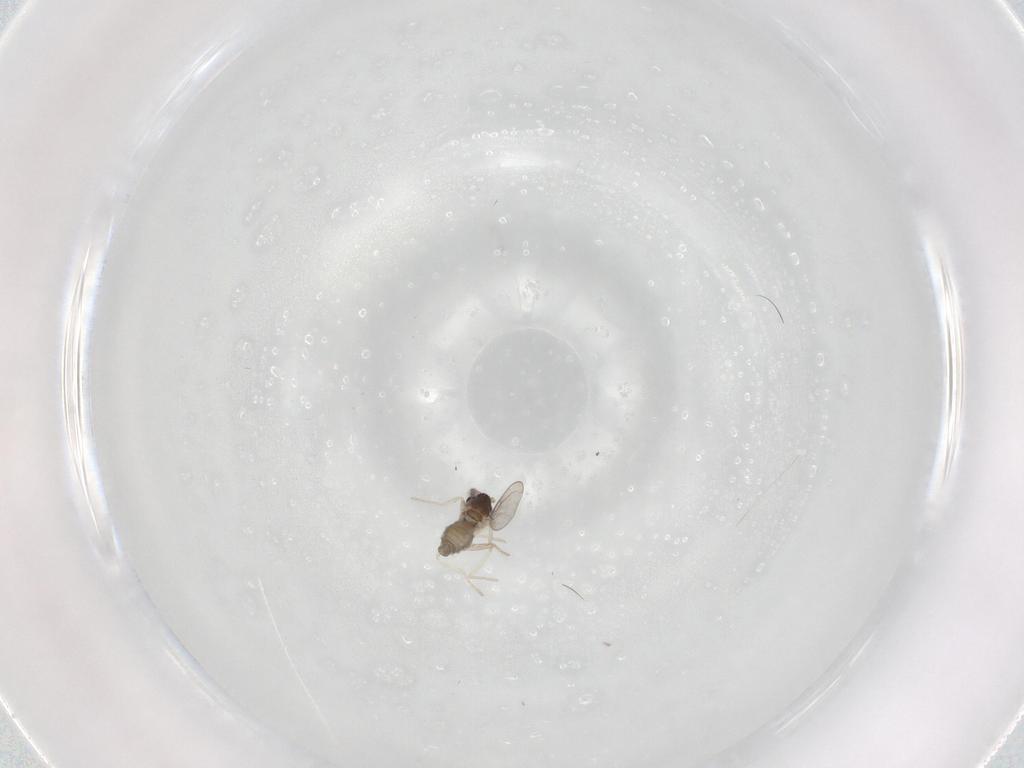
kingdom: Animalia
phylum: Arthropoda
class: Insecta
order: Diptera
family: Cecidomyiidae
